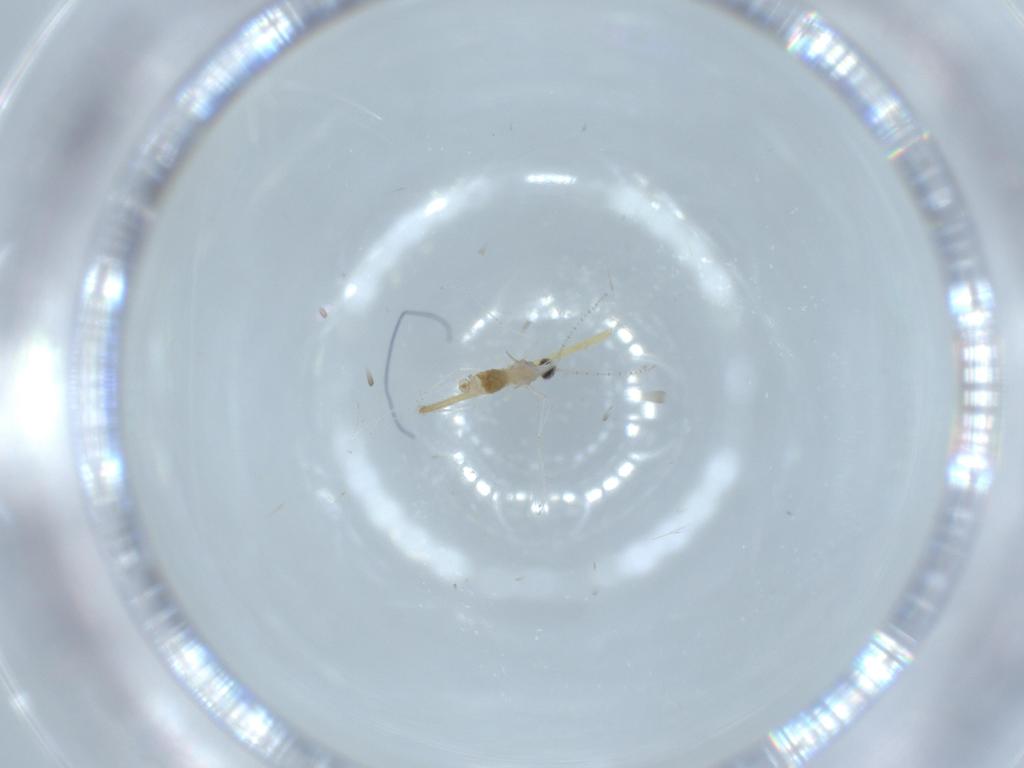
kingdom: Animalia
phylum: Arthropoda
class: Insecta
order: Diptera
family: Chironomidae
